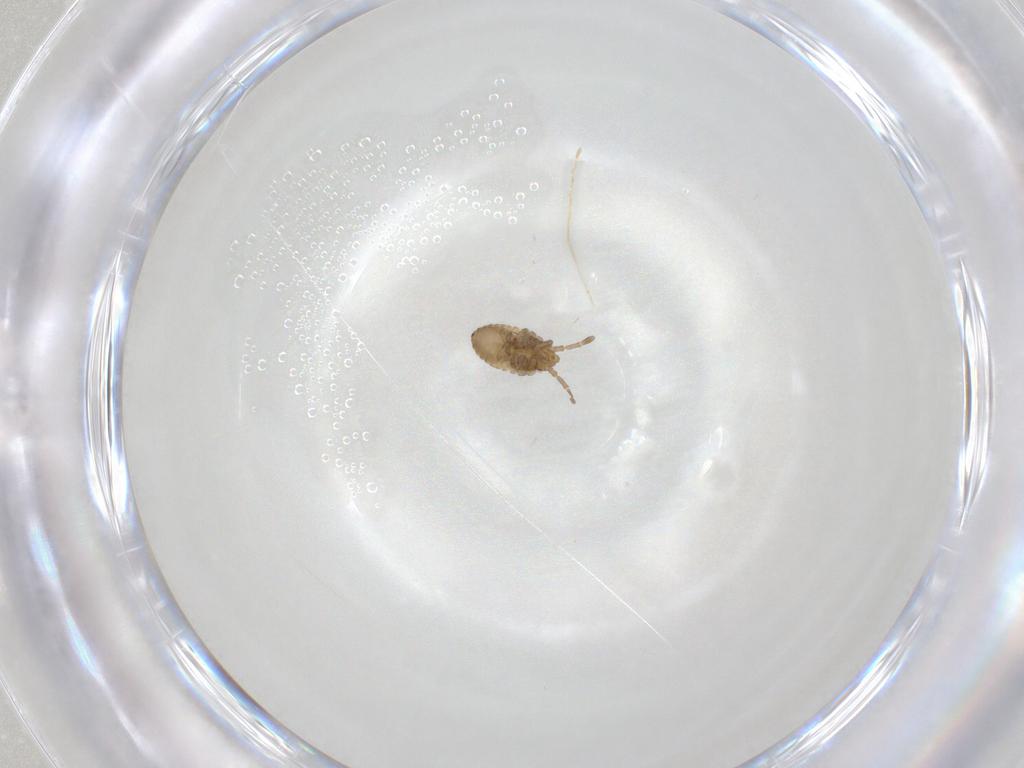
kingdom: Animalia
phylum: Arthropoda
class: Insecta
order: Hemiptera
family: Tingidae
